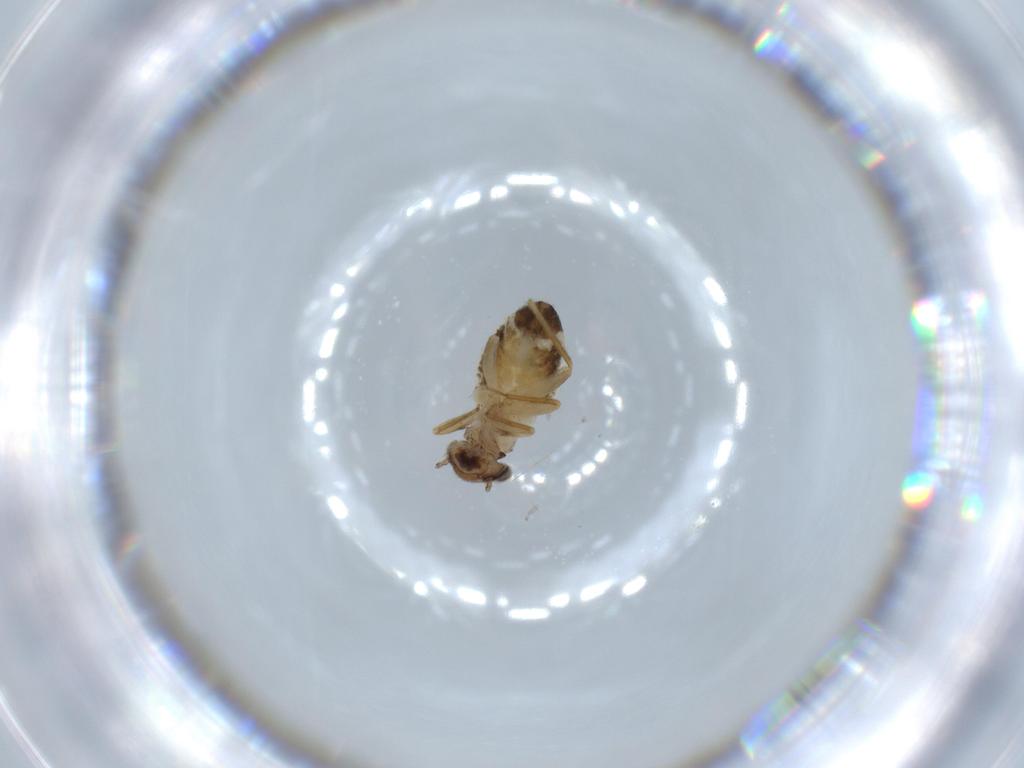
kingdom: Animalia
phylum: Arthropoda
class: Insecta
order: Psocodea
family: Lepidopsocidae
